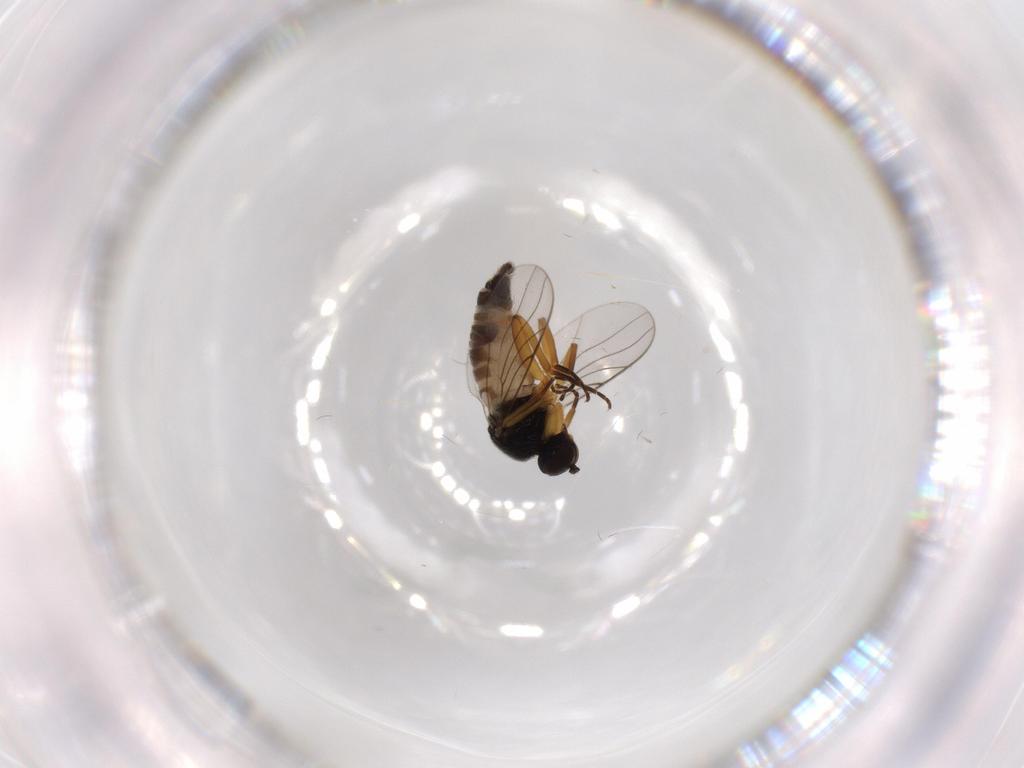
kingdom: Animalia
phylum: Arthropoda
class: Insecta
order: Diptera
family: Hybotidae
